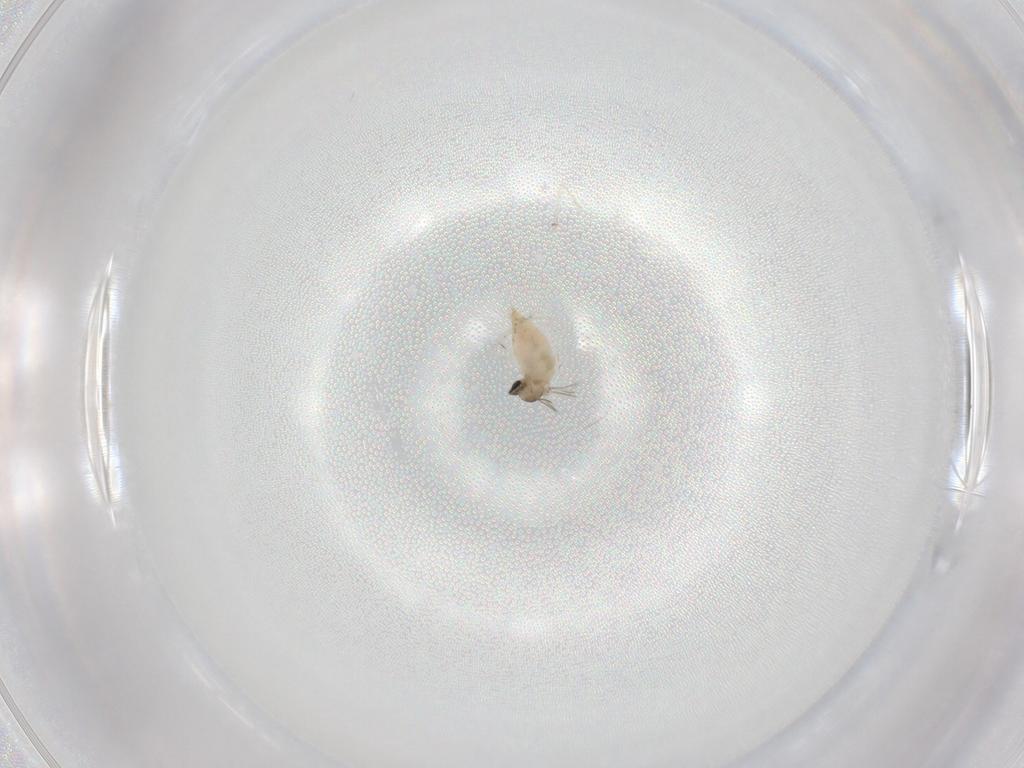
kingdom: Animalia
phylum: Arthropoda
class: Insecta
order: Diptera
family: Cecidomyiidae
